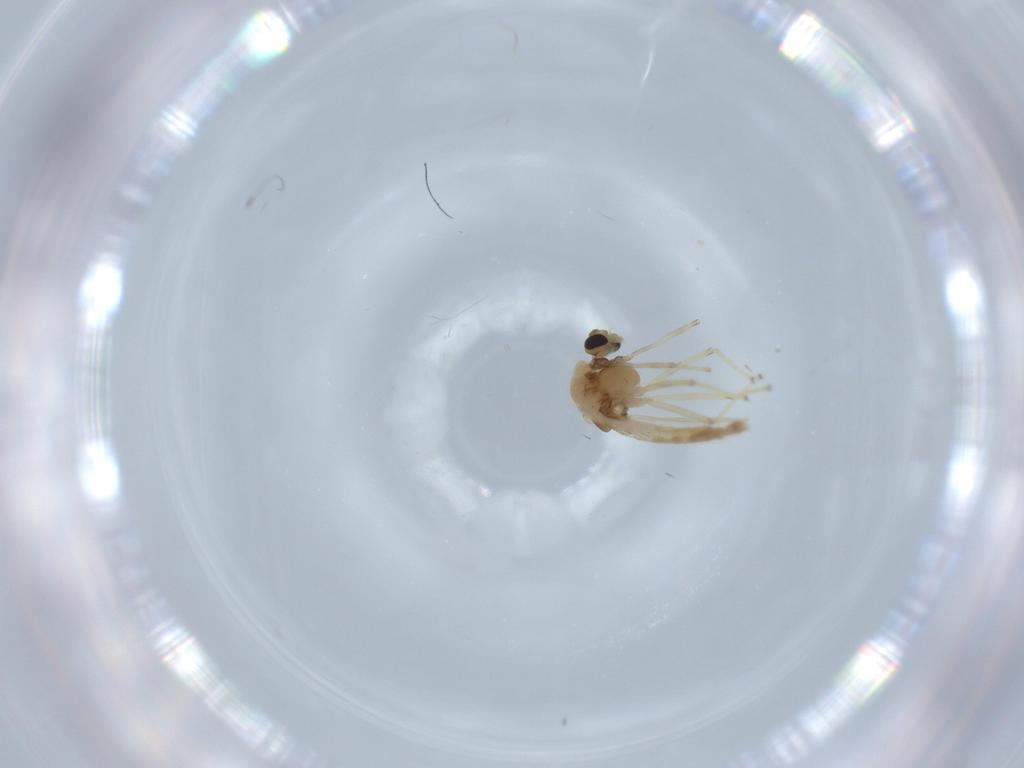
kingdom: Animalia
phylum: Arthropoda
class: Insecta
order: Diptera
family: Chironomidae
